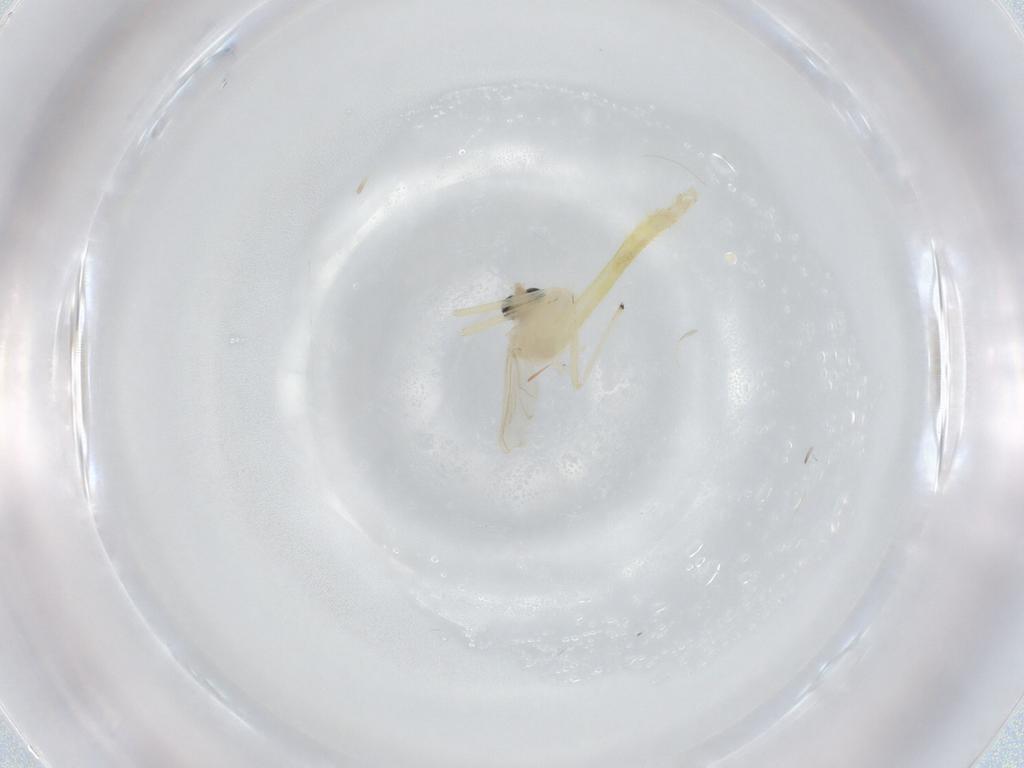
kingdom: Animalia
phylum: Arthropoda
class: Insecta
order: Diptera
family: Chironomidae
